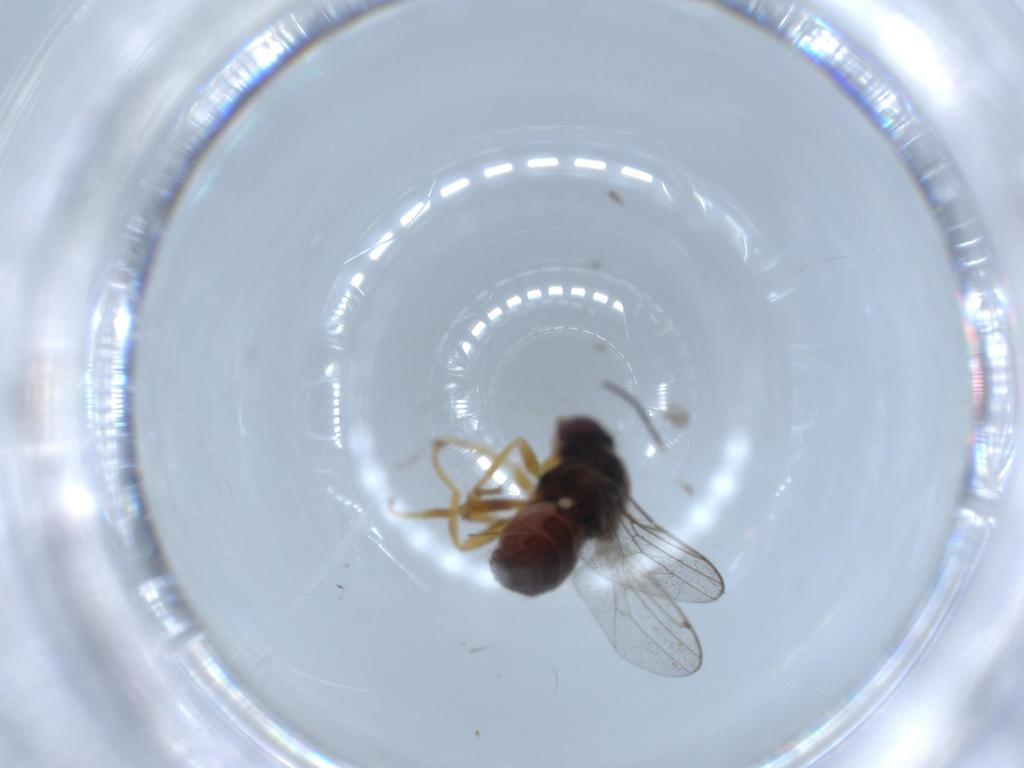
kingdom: Animalia
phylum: Arthropoda
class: Insecta
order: Diptera
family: Chloropidae
